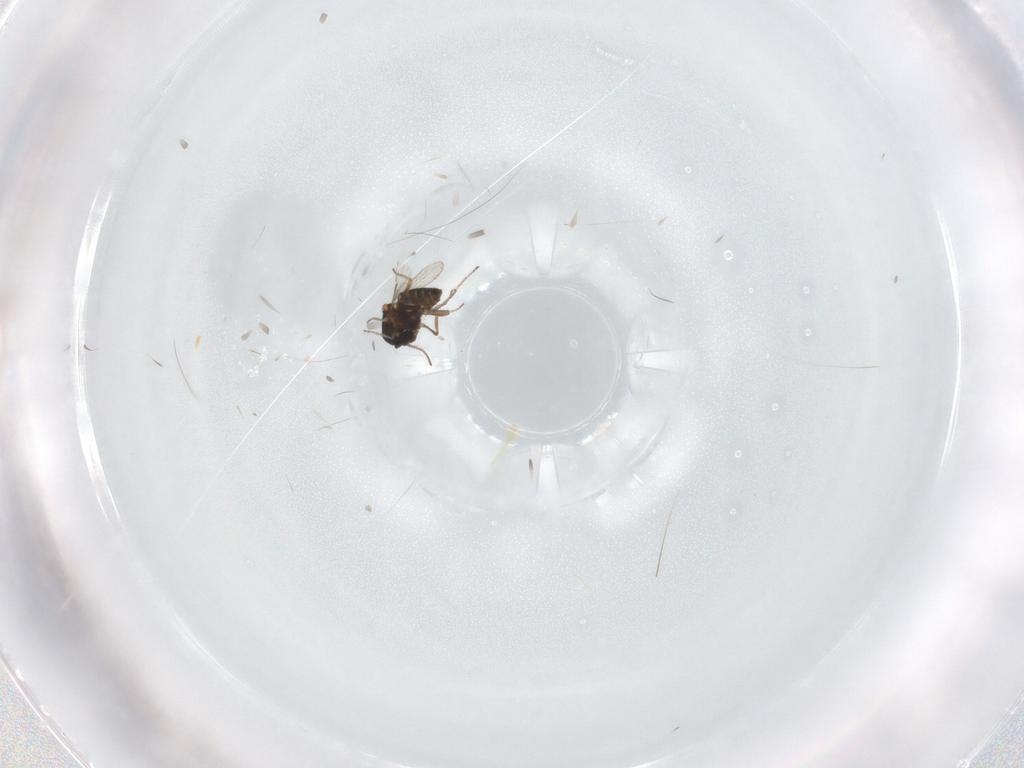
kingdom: Animalia
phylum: Arthropoda
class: Insecta
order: Diptera
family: Ceratopogonidae
